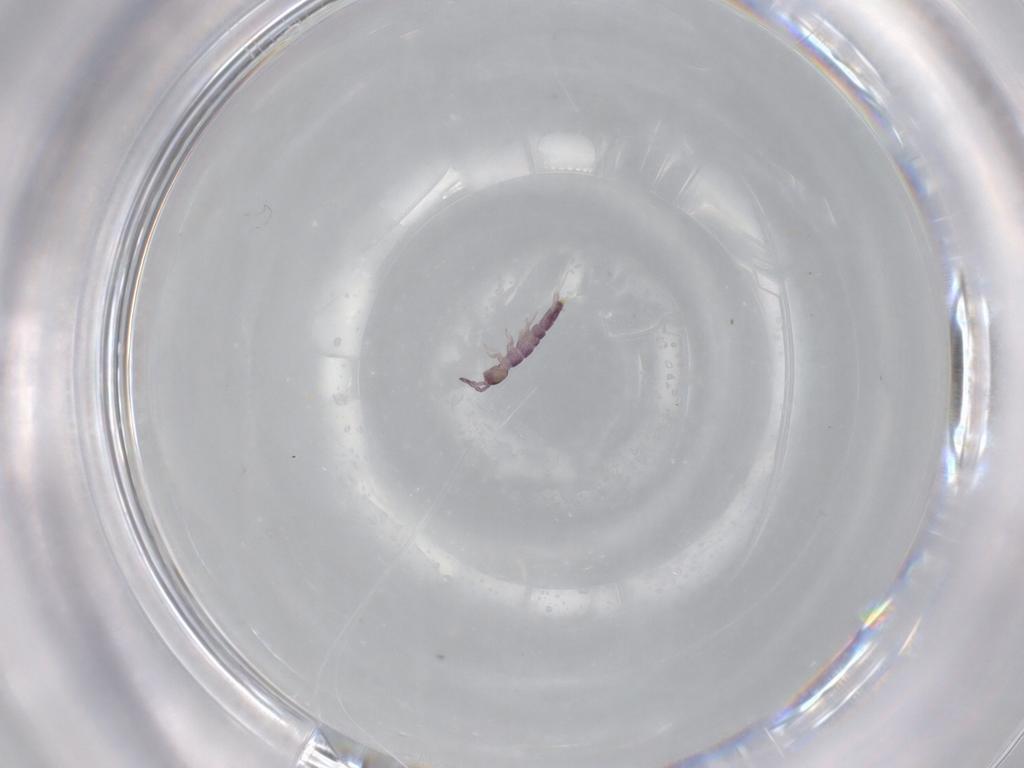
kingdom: Animalia
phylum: Arthropoda
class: Collembola
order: Entomobryomorpha
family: Isotomidae
